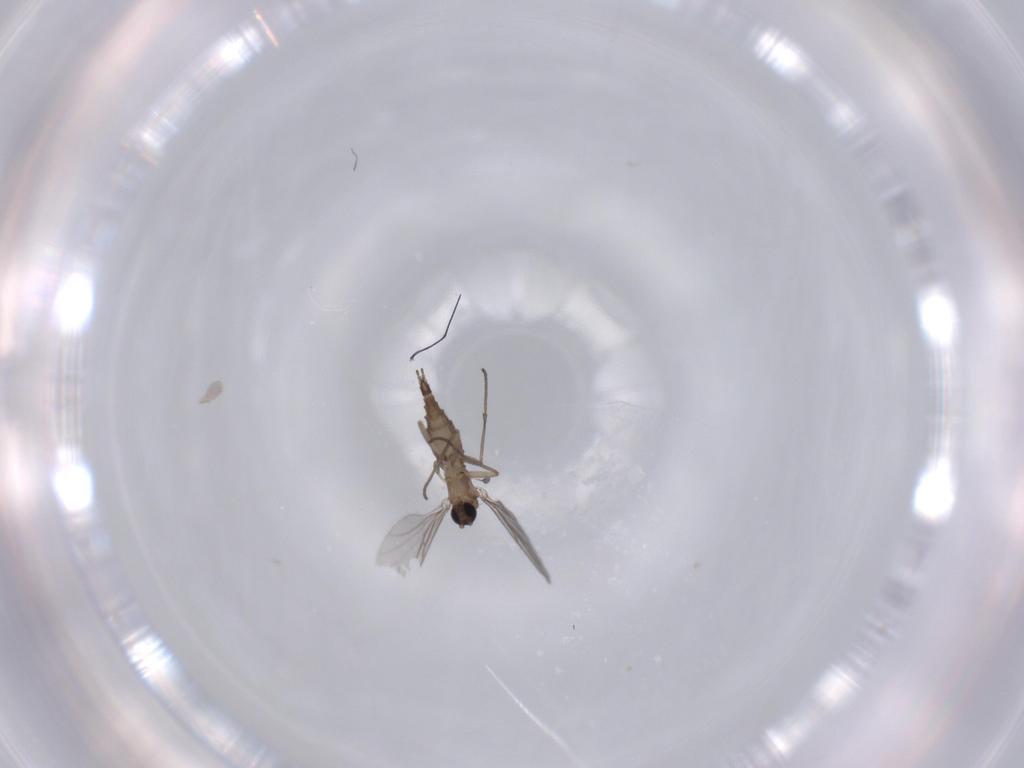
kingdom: Animalia
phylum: Arthropoda
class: Insecta
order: Diptera
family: Sciaridae
